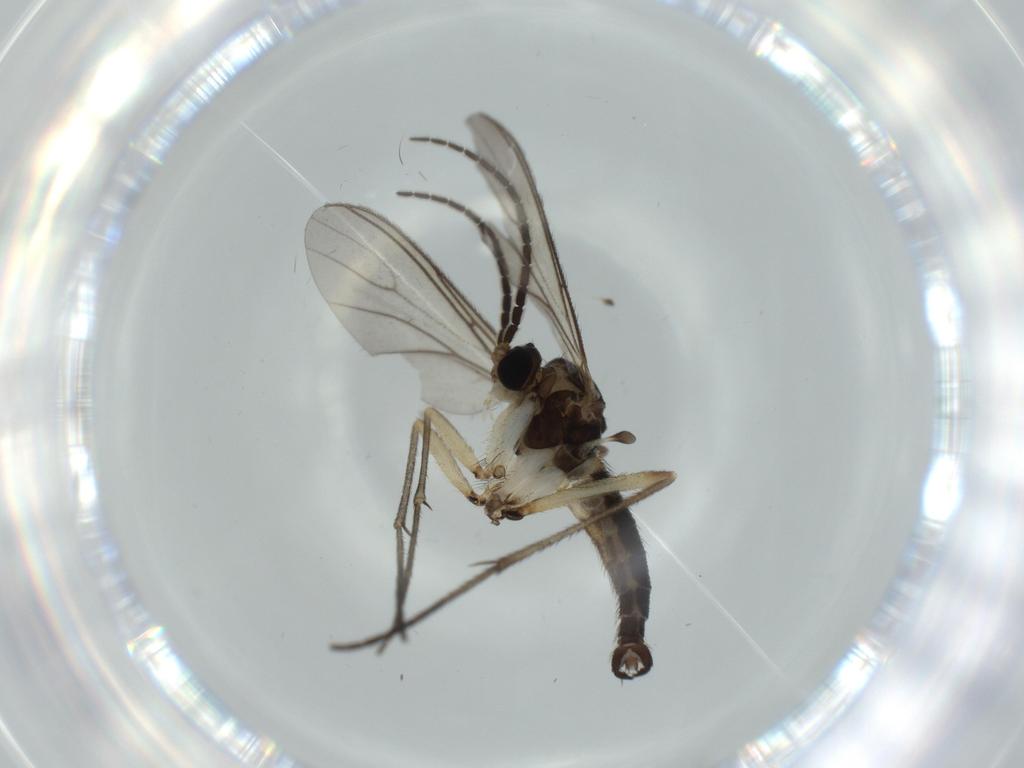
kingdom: Animalia
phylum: Arthropoda
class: Insecta
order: Diptera
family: Sciaridae
